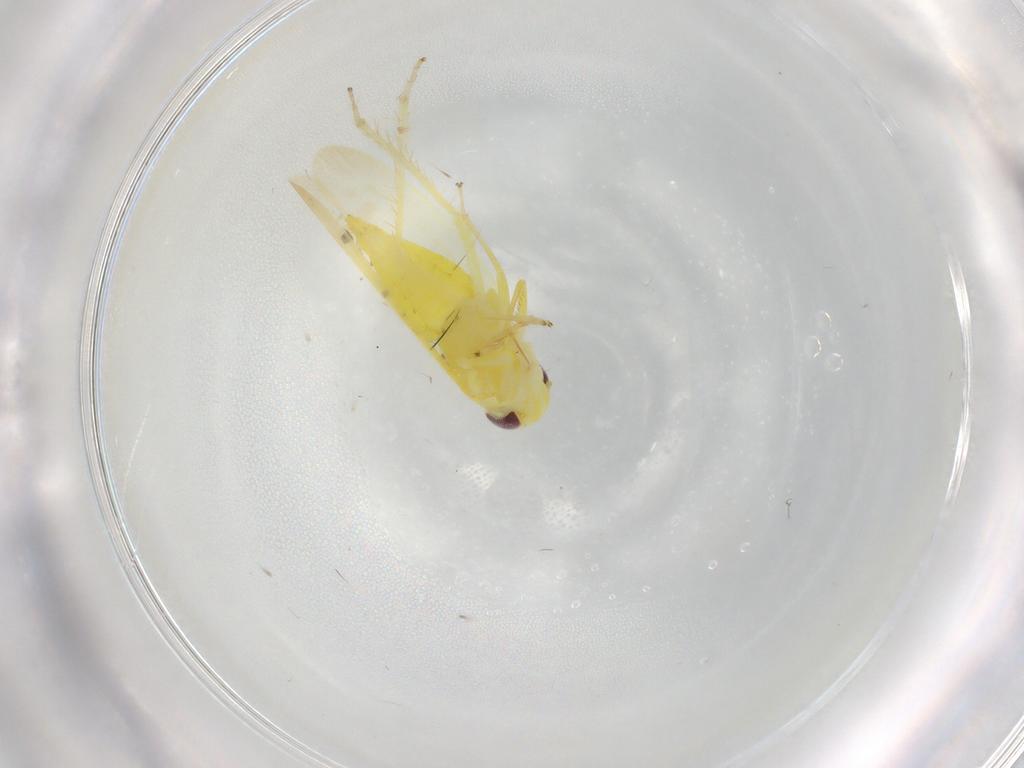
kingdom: Animalia
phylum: Arthropoda
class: Insecta
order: Hemiptera
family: Cicadellidae
